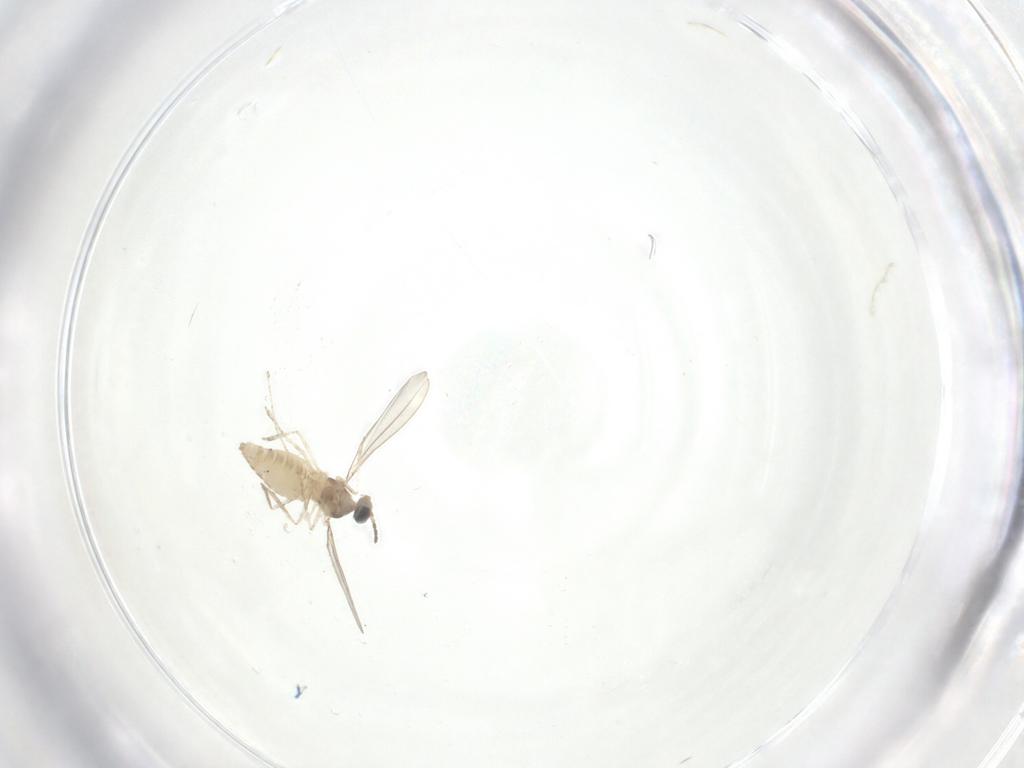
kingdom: Animalia
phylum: Arthropoda
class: Insecta
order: Diptera
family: Cecidomyiidae
